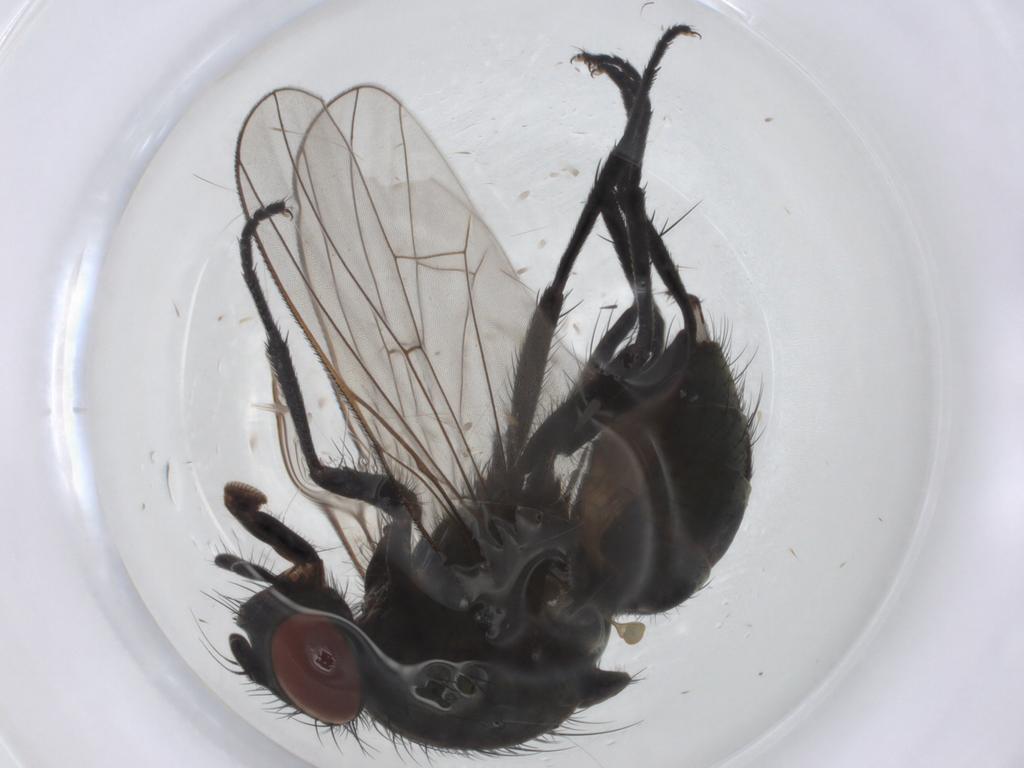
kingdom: Animalia
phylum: Arthropoda
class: Insecta
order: Diptera
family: Anthomyiidae
